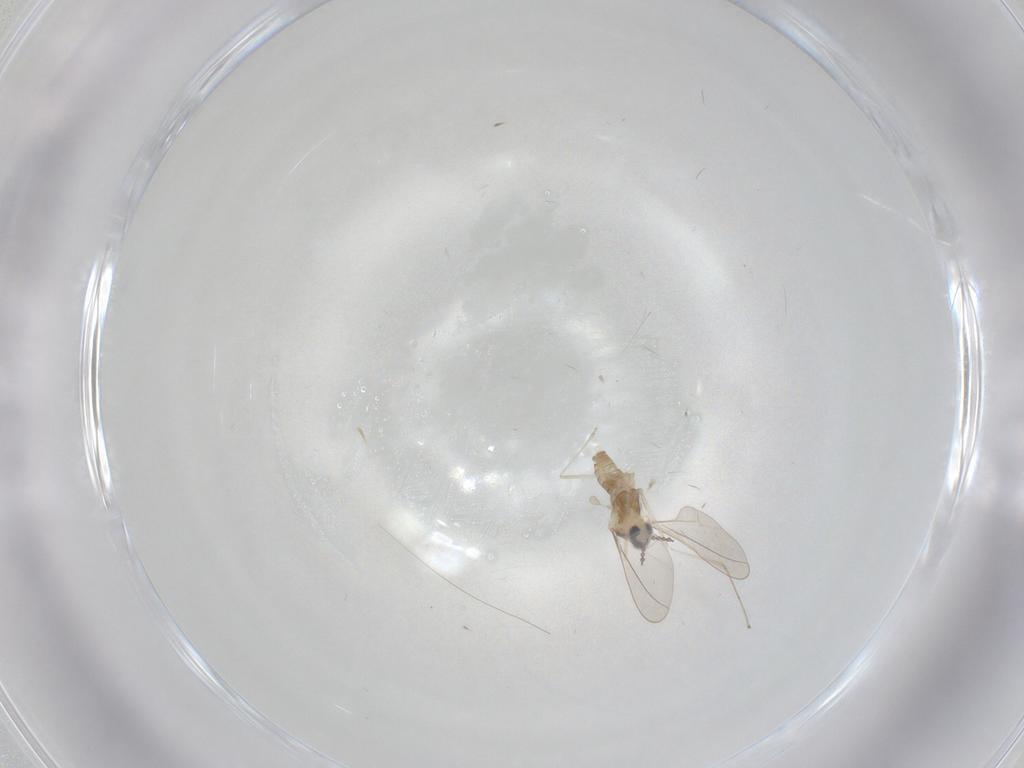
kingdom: Animalia
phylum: Arthropoda
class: Insecta
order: Diptera
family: Cecidomyiidae
